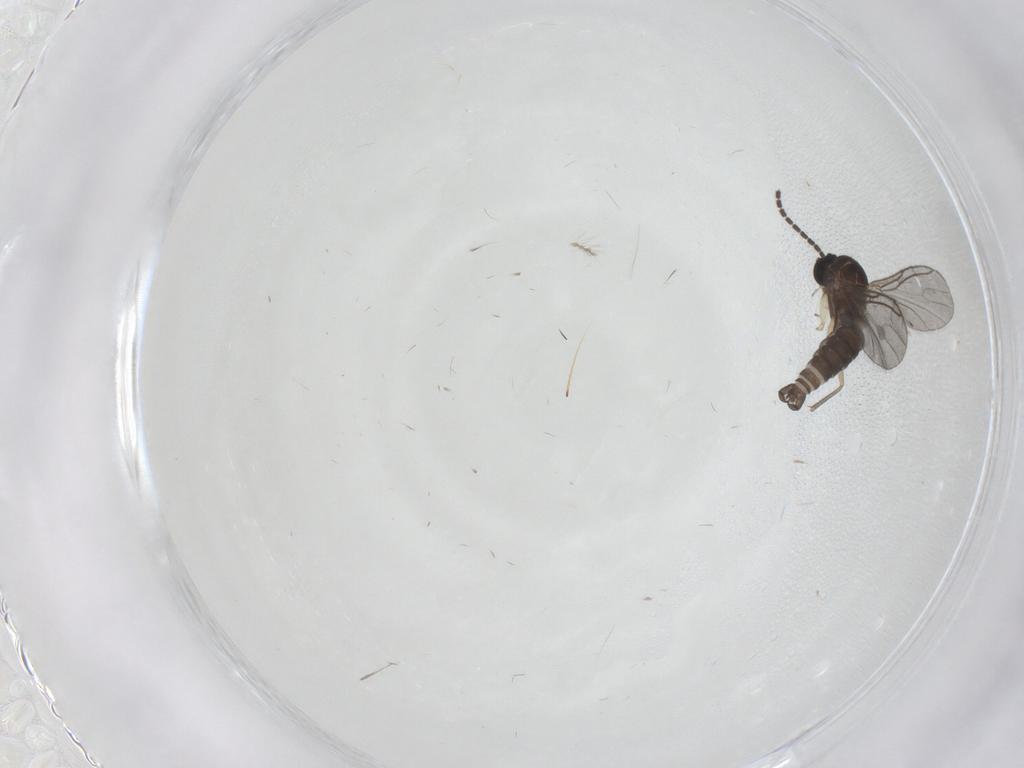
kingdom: Animalia
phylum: Arthropoda
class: Insecta
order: Diptera
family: Sciaridae
